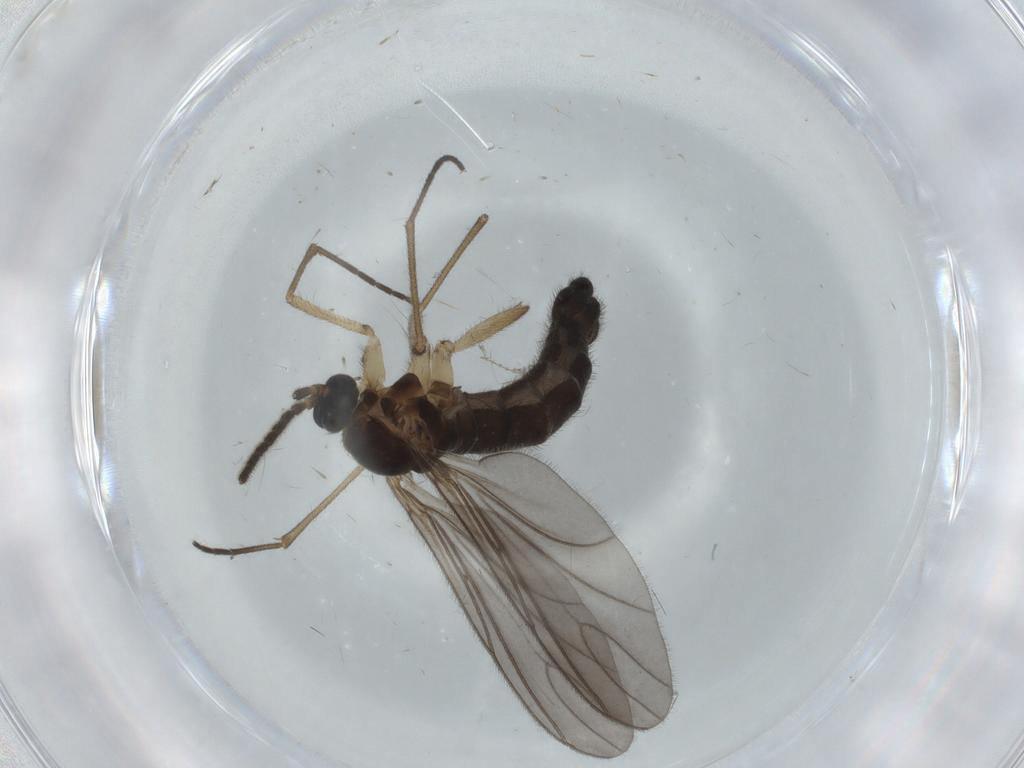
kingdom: Animalia
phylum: Arthropoda
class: Insecta
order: Diptera
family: Sciaridae
